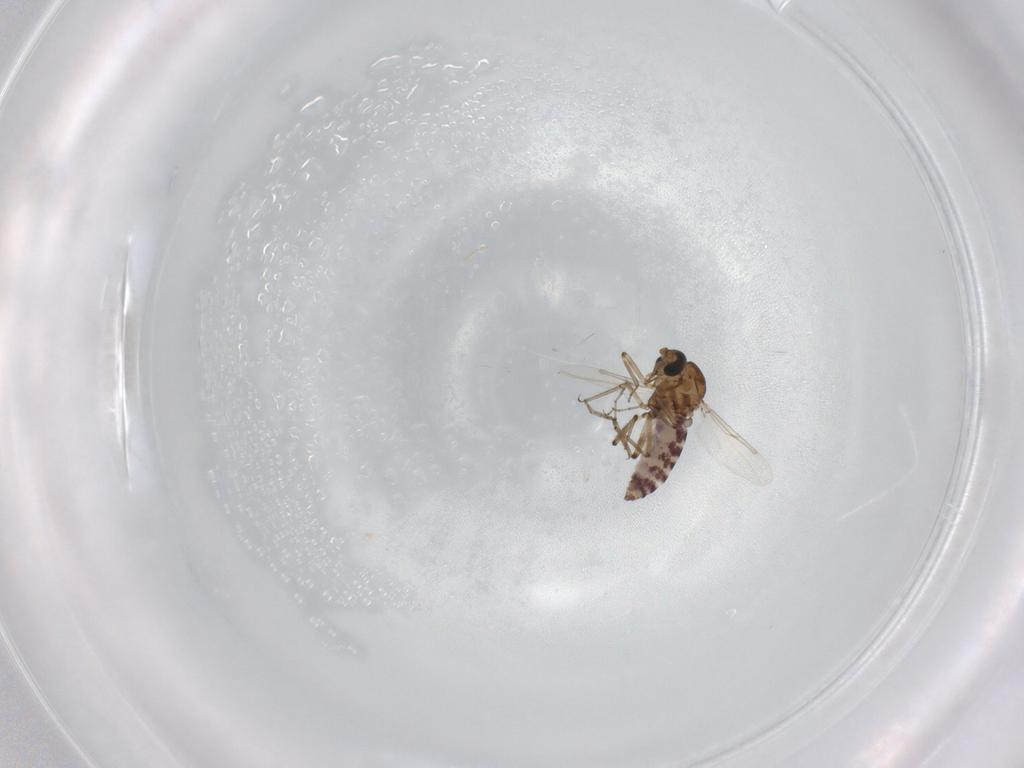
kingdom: Animalia
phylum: Arthropoda
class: Insecta
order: Diptera
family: Ceratopogonidae
